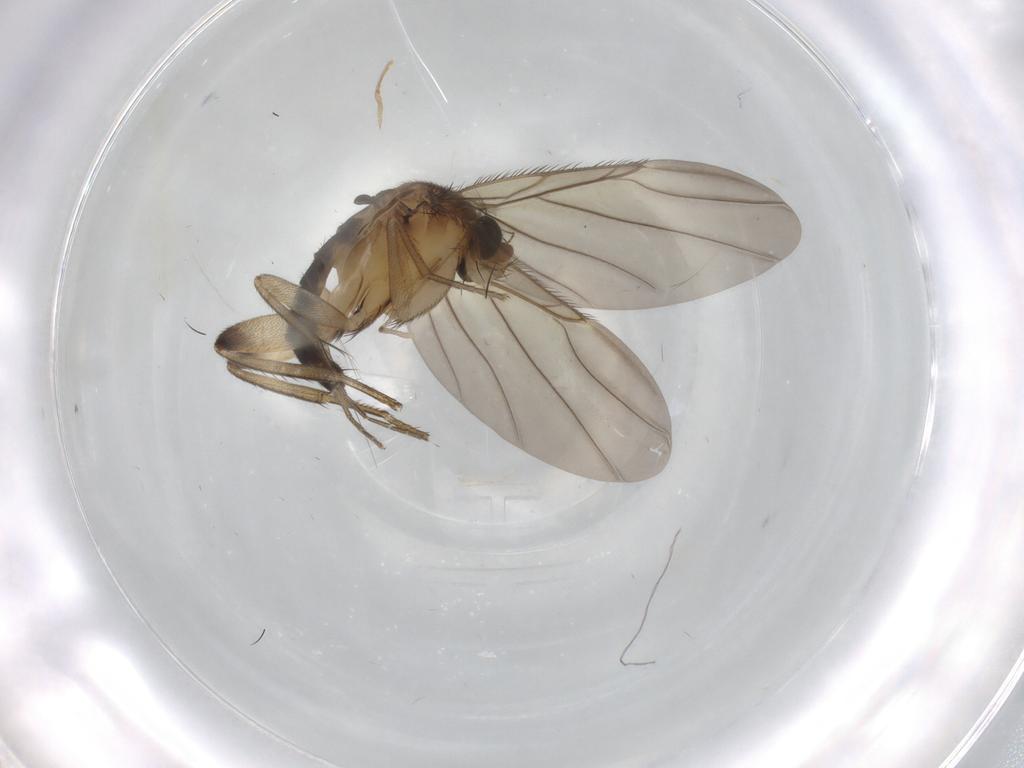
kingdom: Animalia
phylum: Arthropoda
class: Insecta
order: Diptera
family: Phoridae
